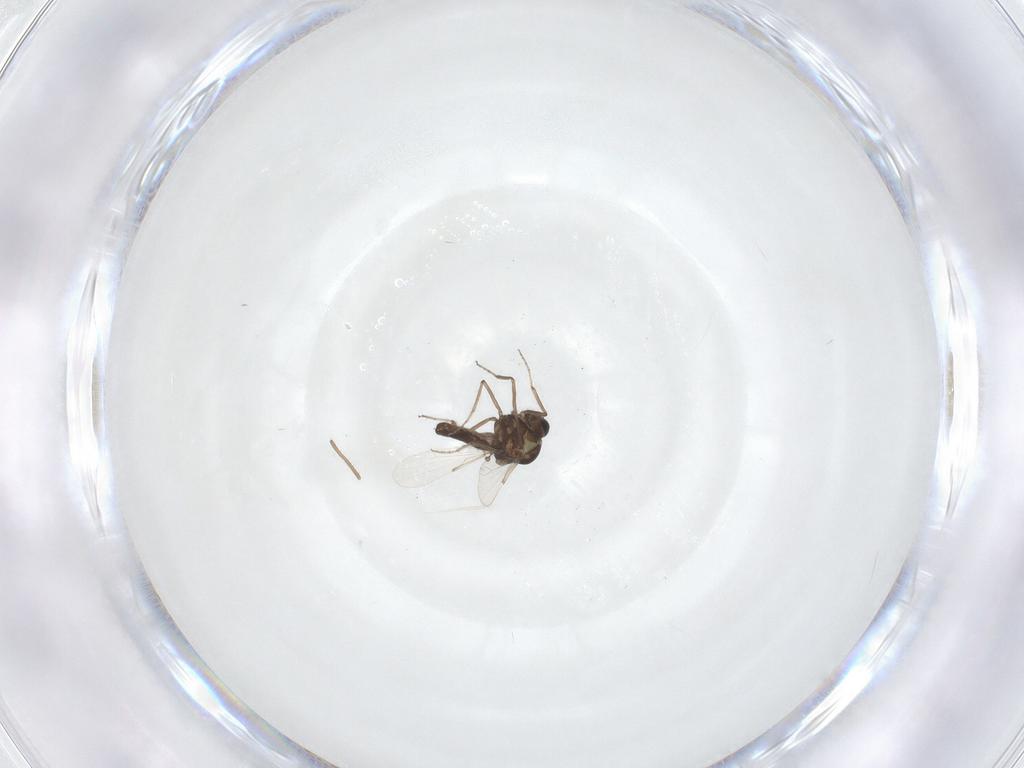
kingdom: Animalia
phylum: Arthropoda
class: Insecta
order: Diptera
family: Ceratopogonidae
